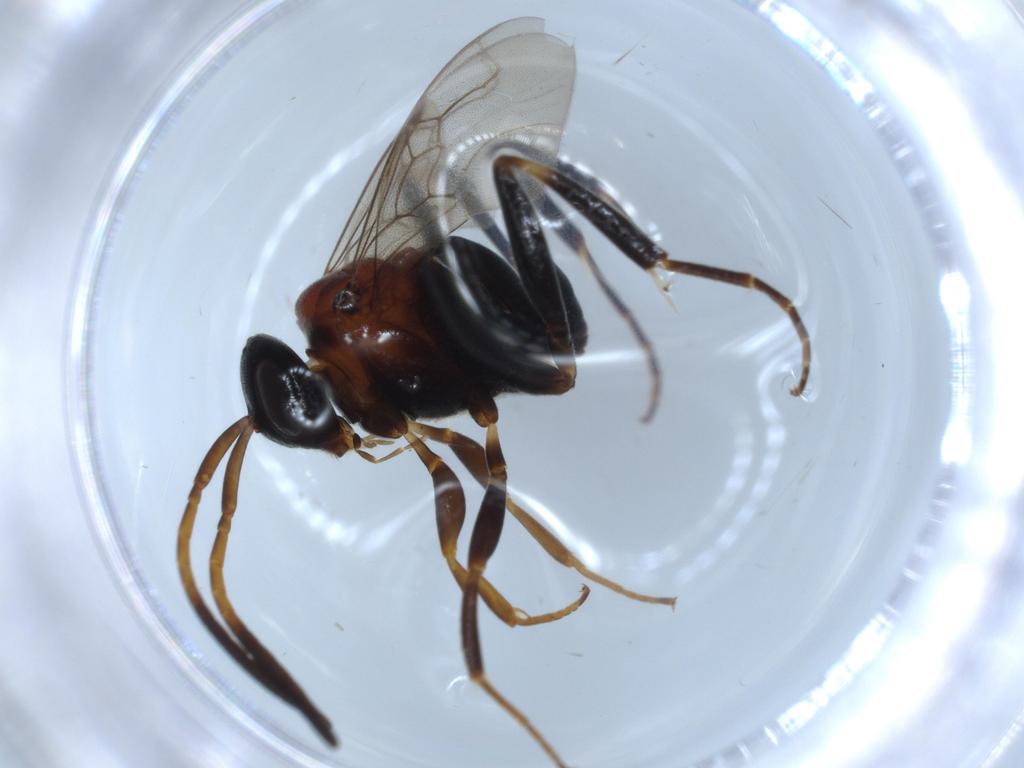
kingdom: Animalia
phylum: Arthropoda
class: Insecta
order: Hymenoptera
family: Evaniidae
